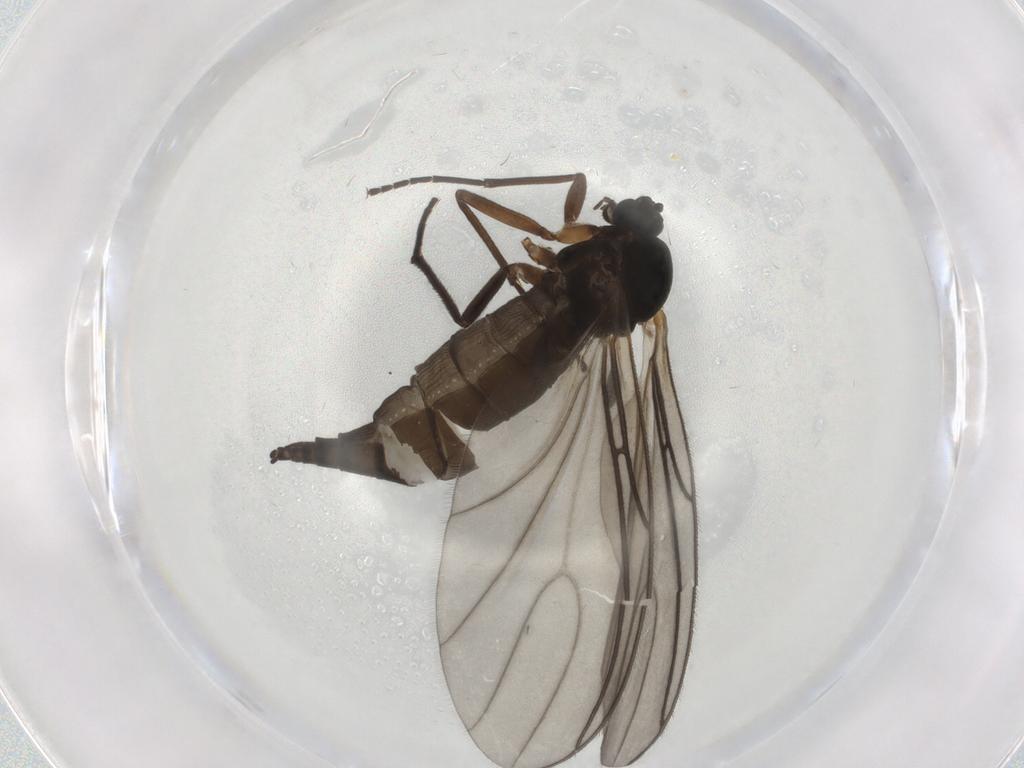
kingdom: Animalia
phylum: Arthropoda
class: Insecta
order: Diptera
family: Sciaridae
